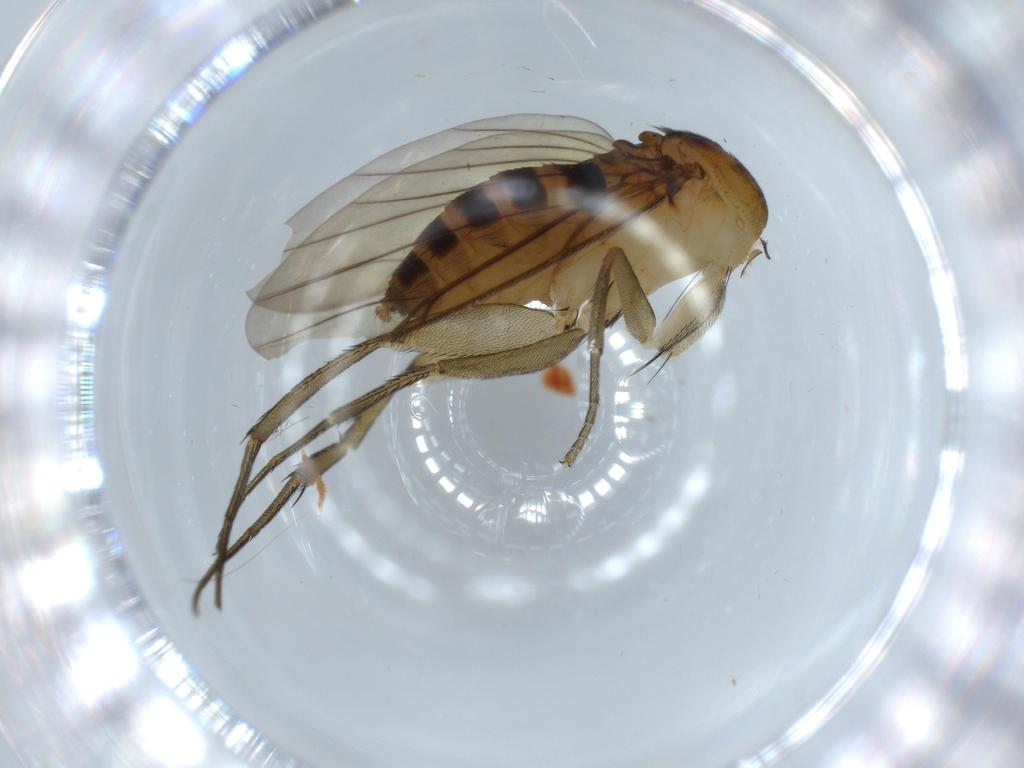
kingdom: Animalia
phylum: Arthropoda
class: Insecta
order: Diptera
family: Phoridae
